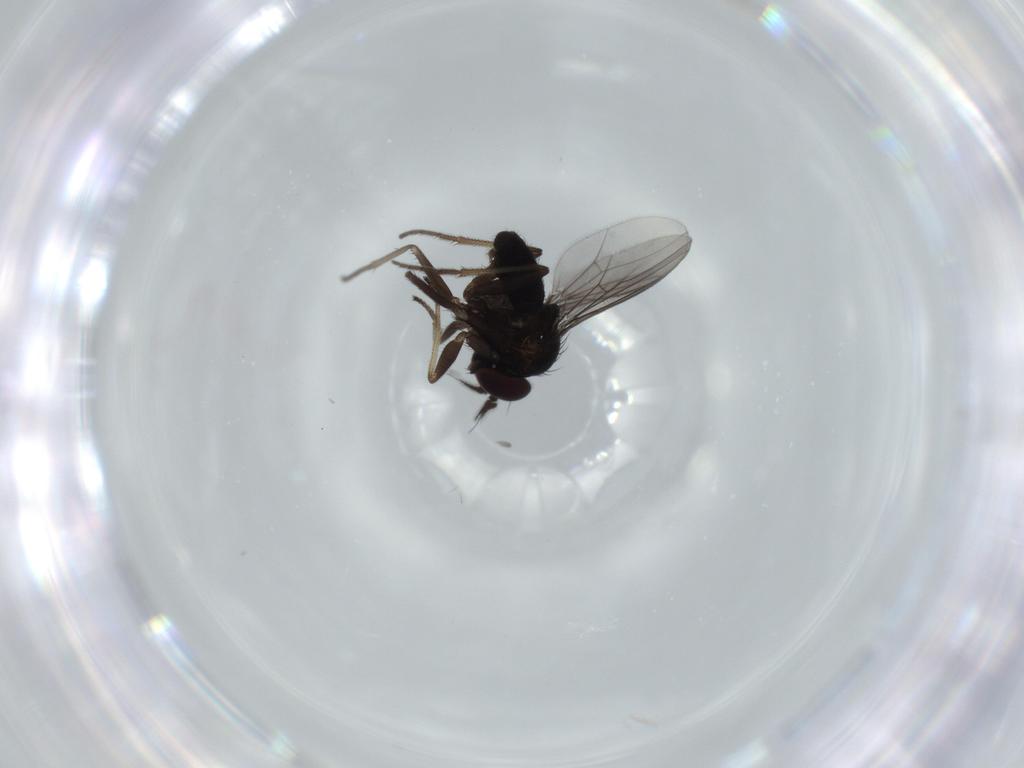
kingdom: Animalia
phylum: Arthropoda
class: Insecta
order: Diptera
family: Dolichopodidae
